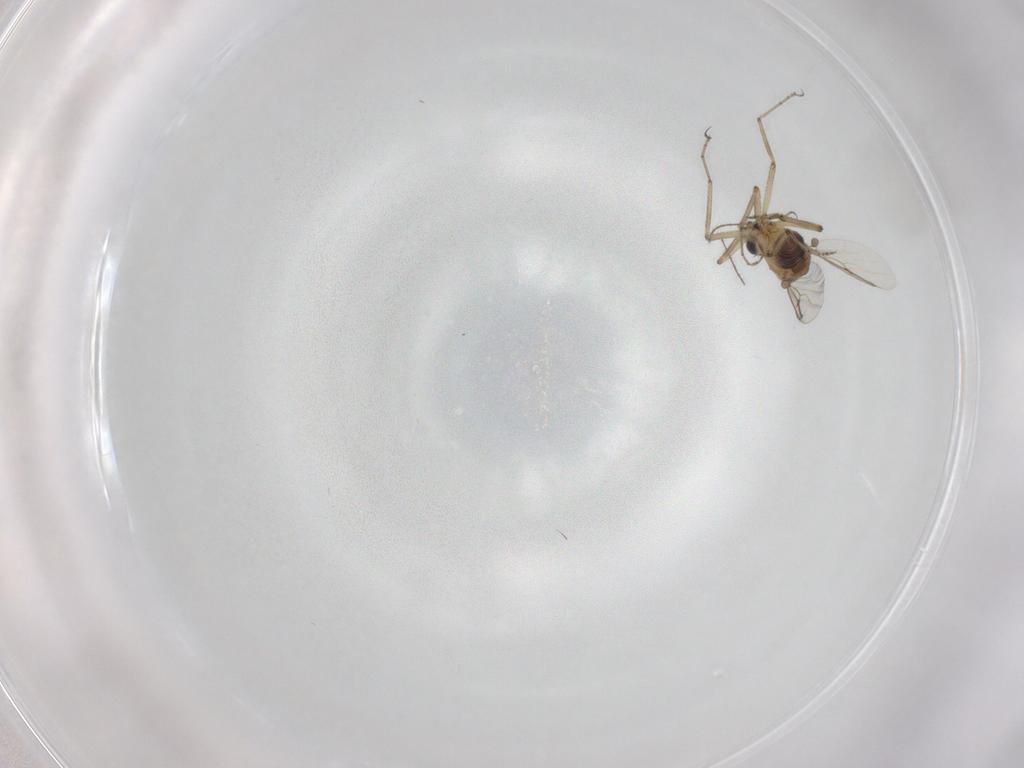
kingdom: Animalia
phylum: Arthropoda
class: Insecta
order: Diptera
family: Ceratopogonidae
